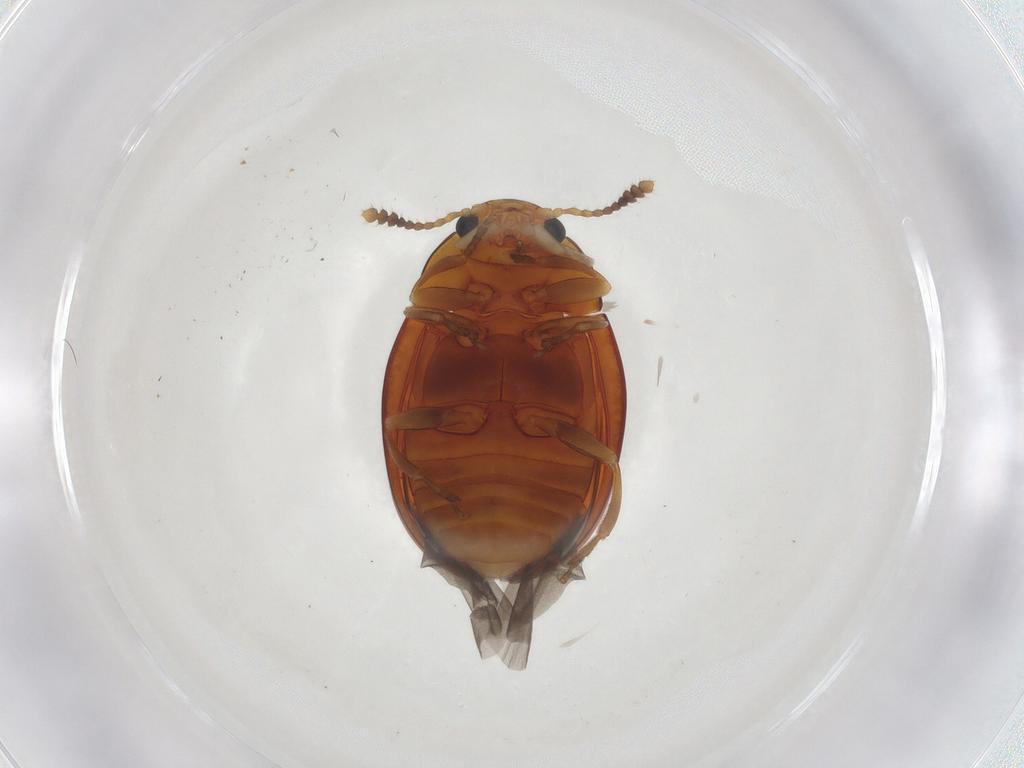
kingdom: Animalia
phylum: Arthropoda
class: Insecta
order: Coleoptera
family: Erotylidae
